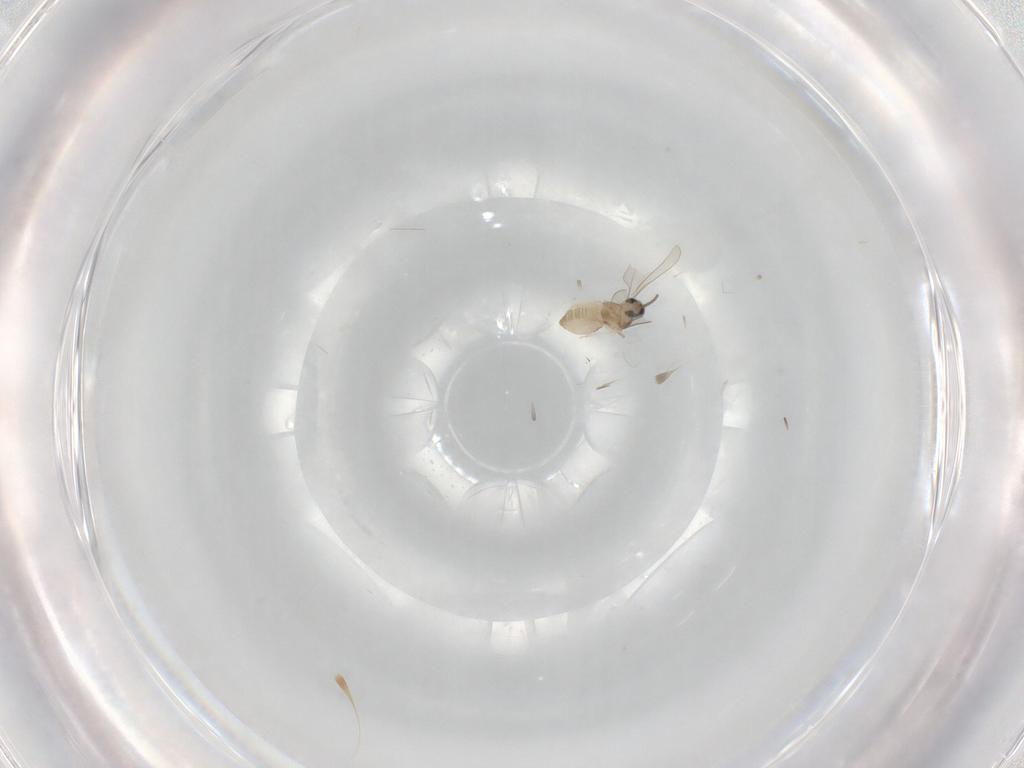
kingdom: Animalia
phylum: Arthropoda
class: Insecta
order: Diptera
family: Cecidomyiidae
